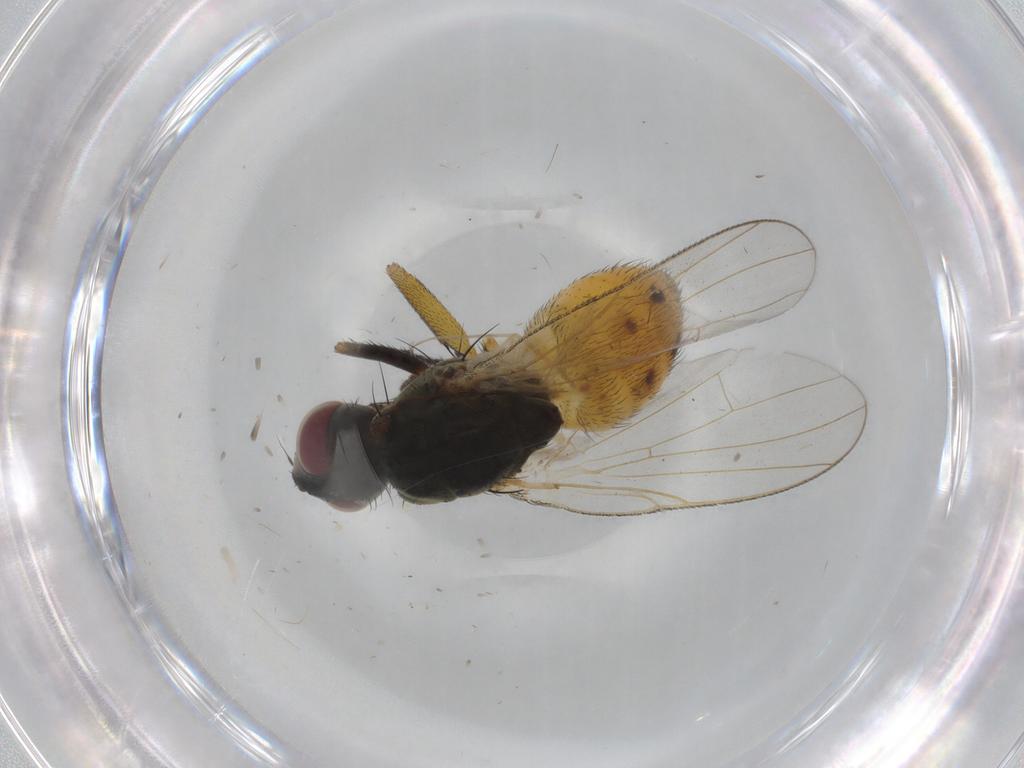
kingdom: Animalia
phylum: Arthropoda
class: Insecta
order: Diptera
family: Muscidae
